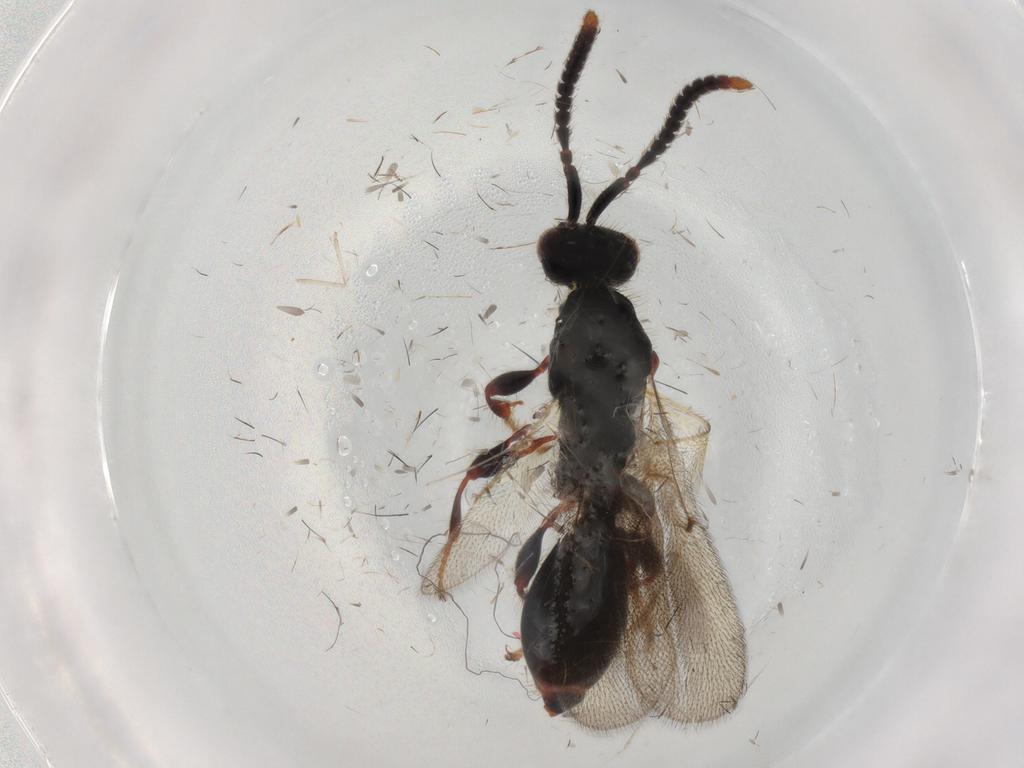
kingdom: Animalia
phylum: Arthropoda
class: Insecta
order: Hymenoptera
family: Diapriidae
